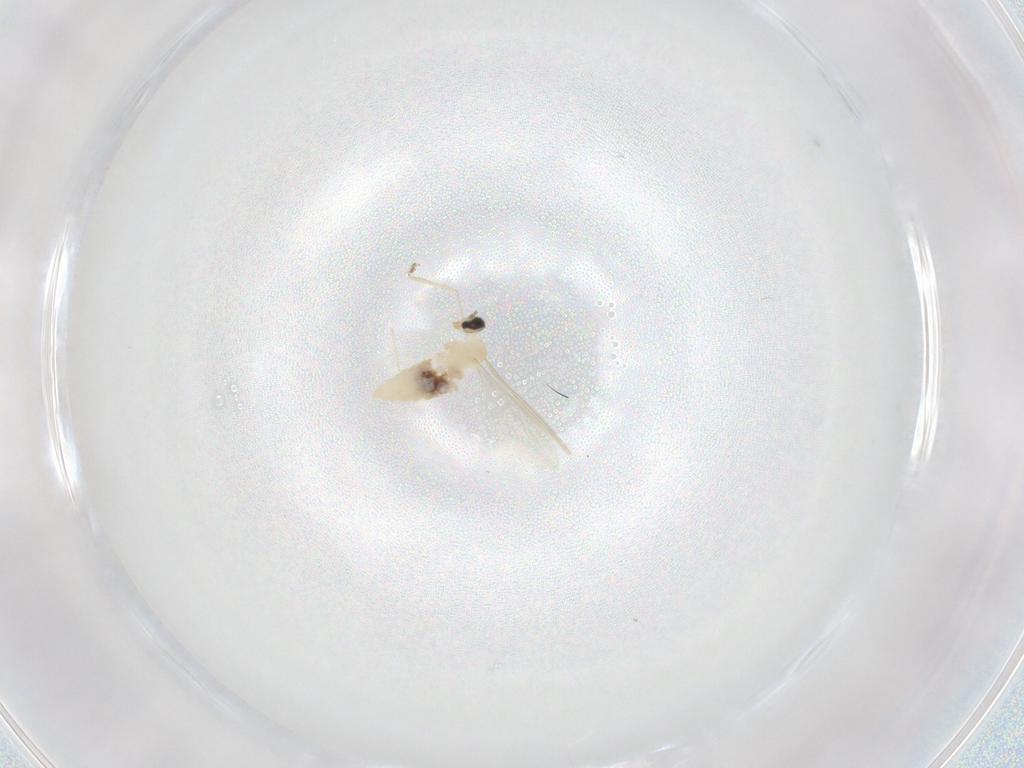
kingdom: Animalia
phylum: Arthropoda
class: Insecta
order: Diptera
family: Cecidomyiidae
